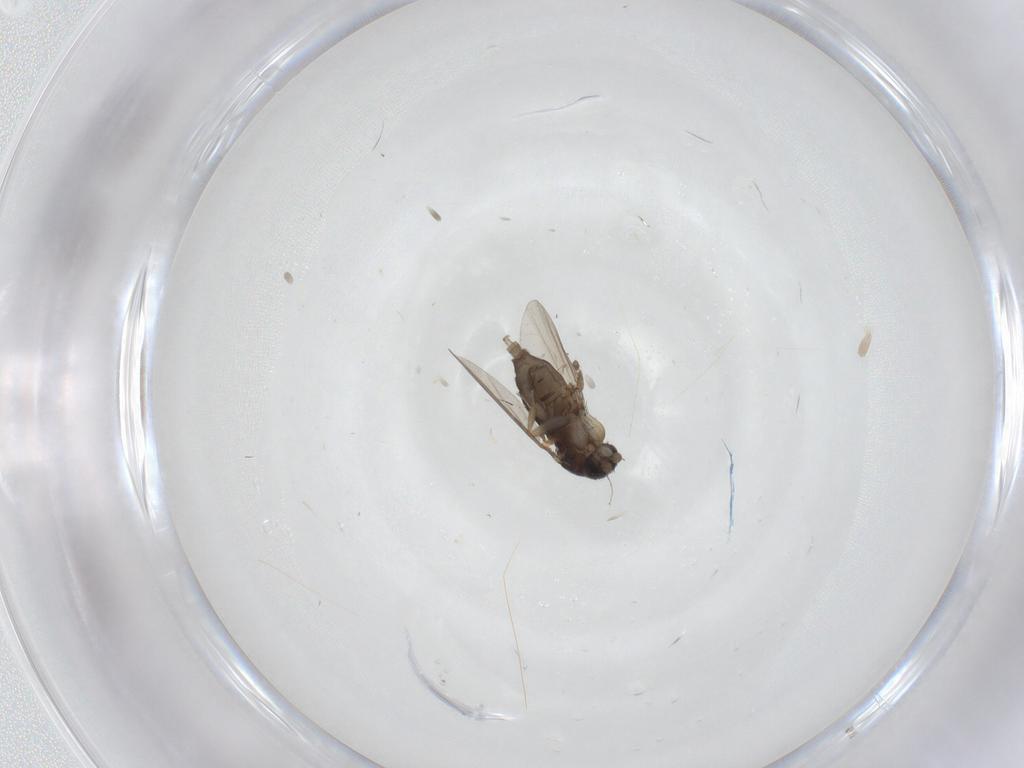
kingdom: Animalia
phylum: Arthropoda
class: Insecta
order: Diptera
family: Phoridae
